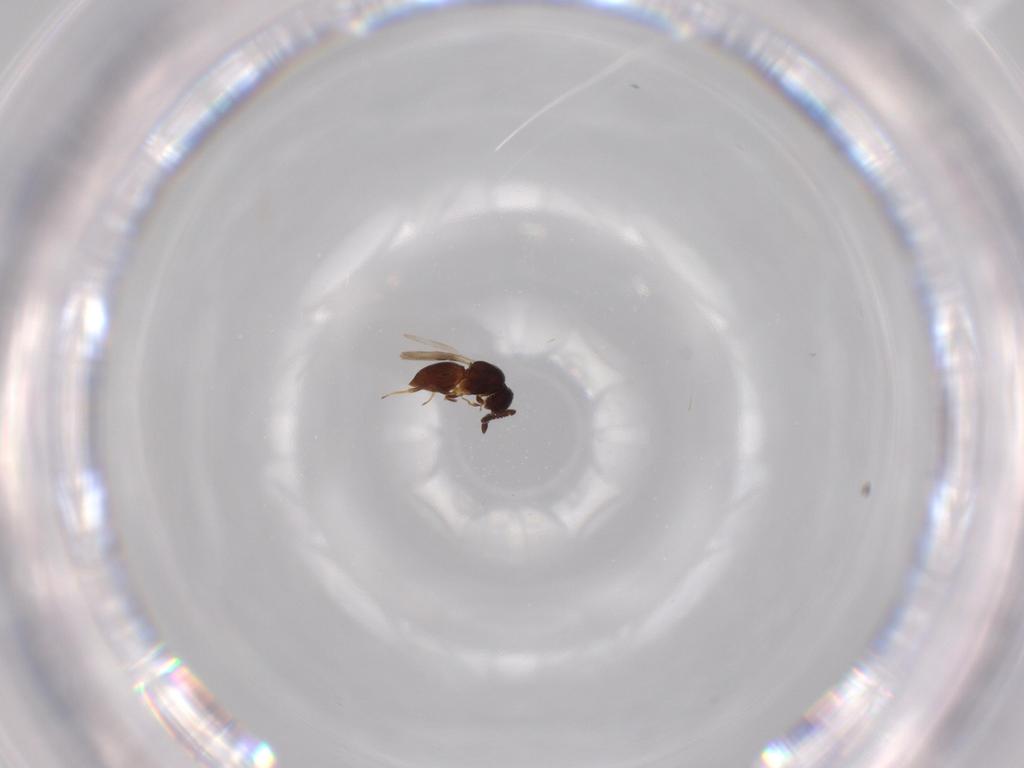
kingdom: Animalia
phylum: Arthropoda
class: Insecta
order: Hymenoptera
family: Ceraphronidae
